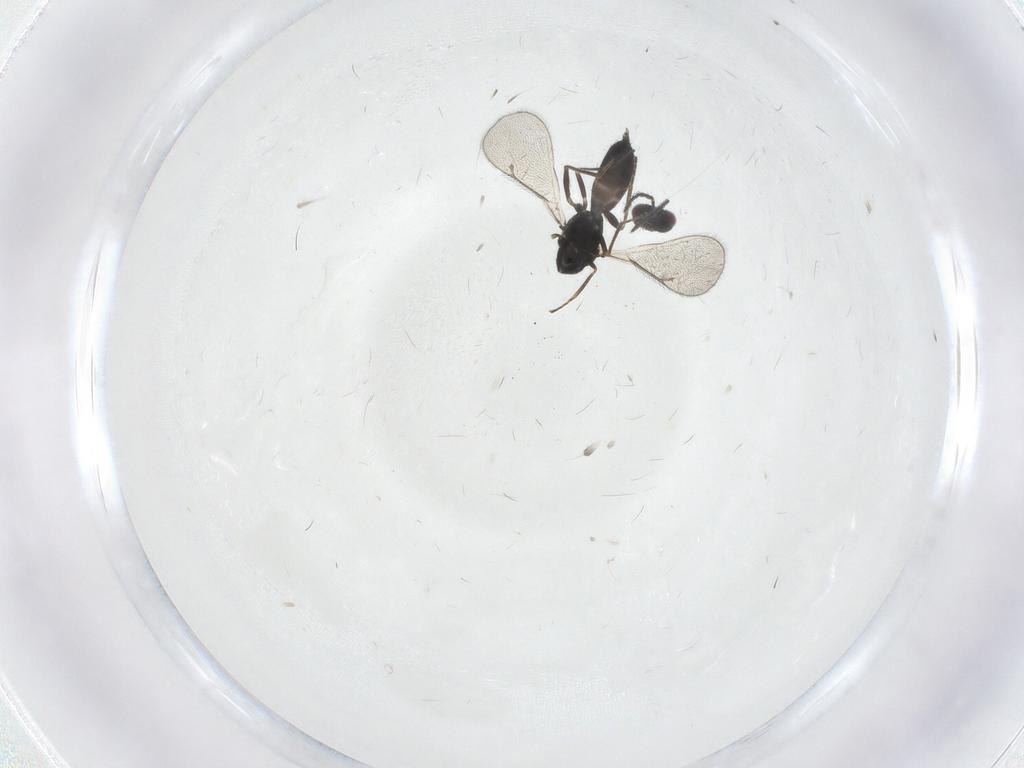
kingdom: Animalia
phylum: Arthropoda
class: Insecta
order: Hymenoptera
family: Eulophidae
